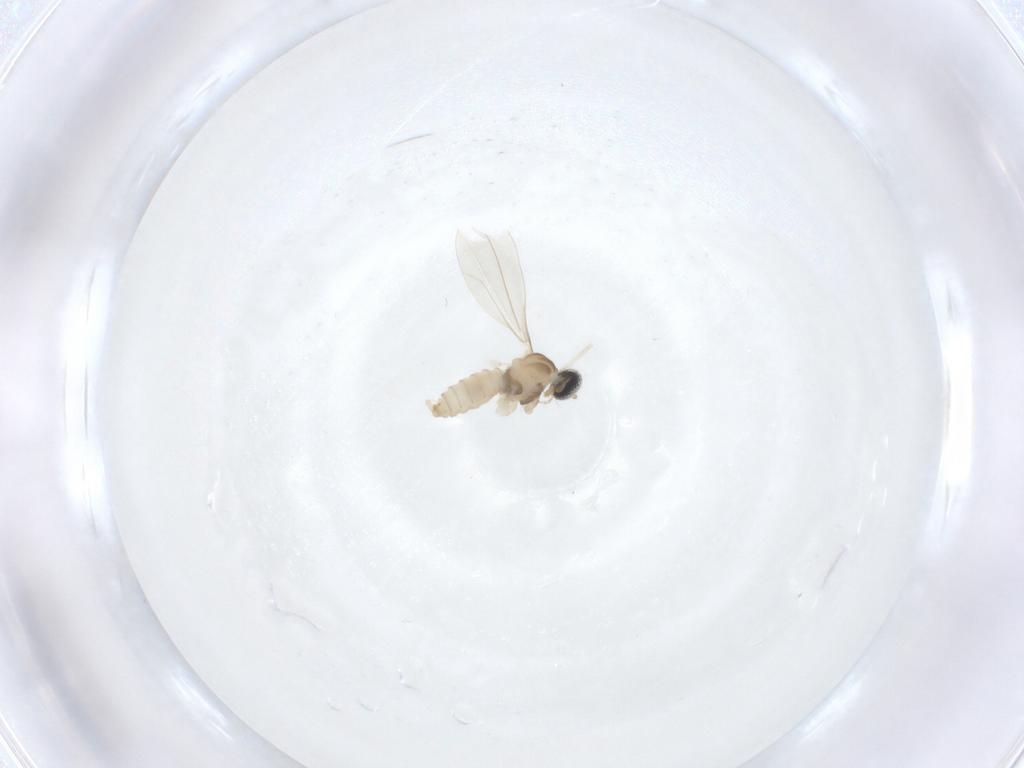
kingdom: Animalia
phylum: Arthropoda
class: Insecta
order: Diptera
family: Cecidomyiidae
